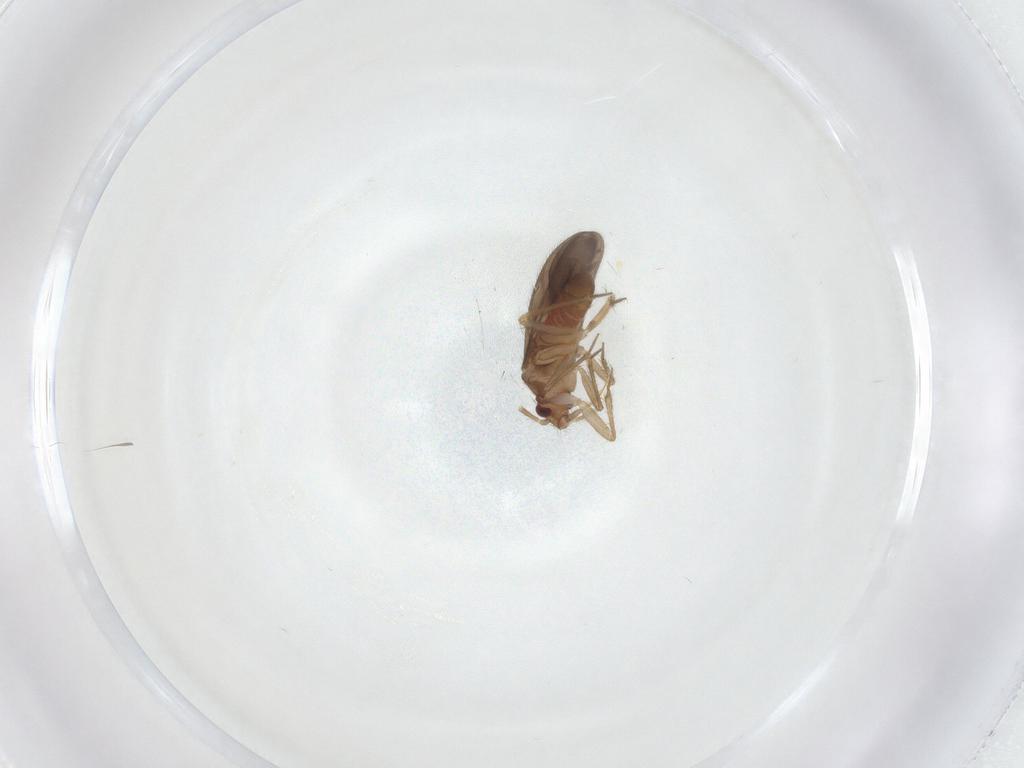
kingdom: Animalia
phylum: Arthropoda
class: Insecta
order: Hemiptera
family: Ceratocombidae
